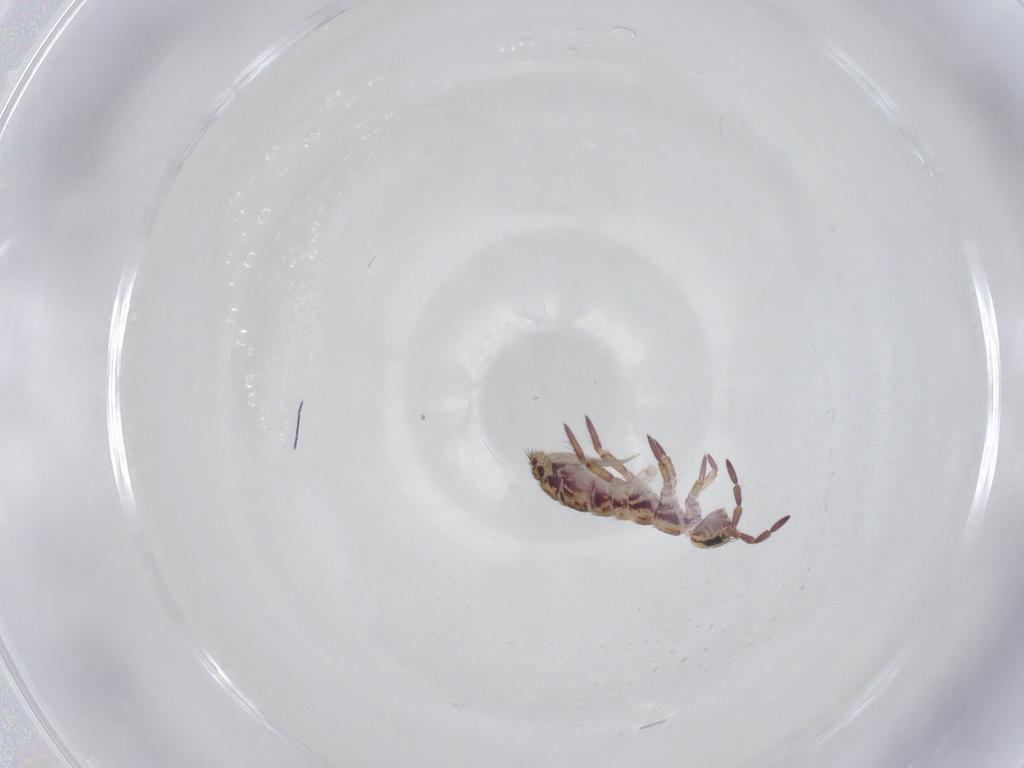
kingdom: Animalia
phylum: Arthropoda
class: Collembola
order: Entomobryomorpha
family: Isotomidae
